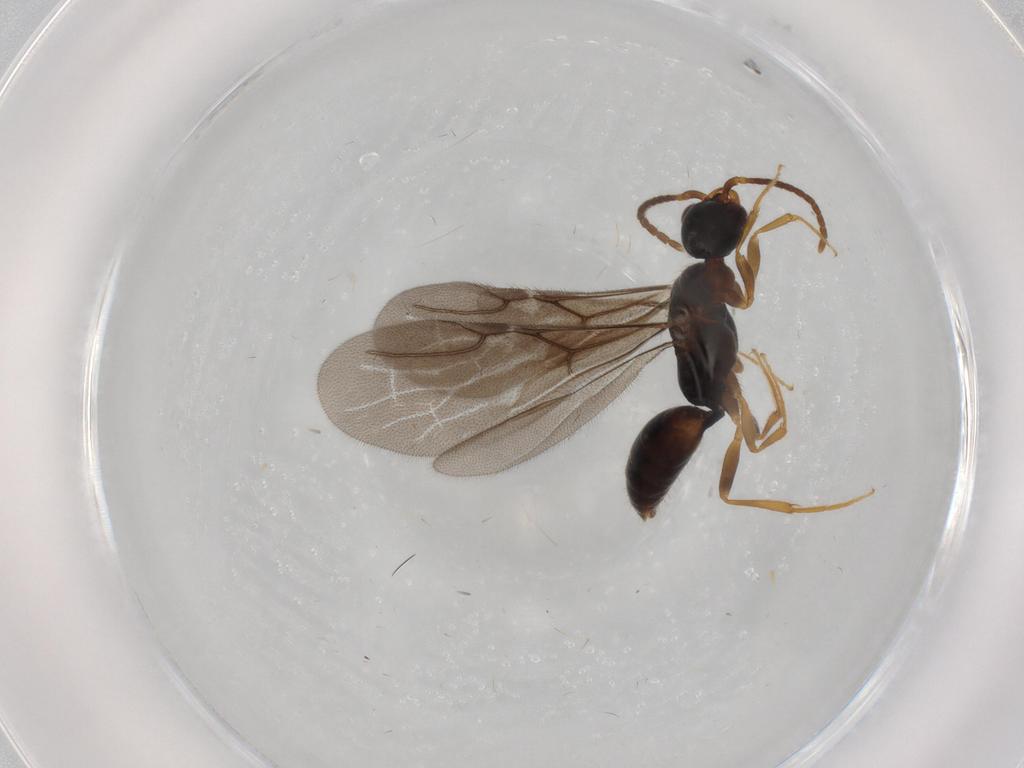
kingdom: Animalia
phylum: Arthropoda
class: Insecta
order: Hymenoptera
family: Bethylidae
